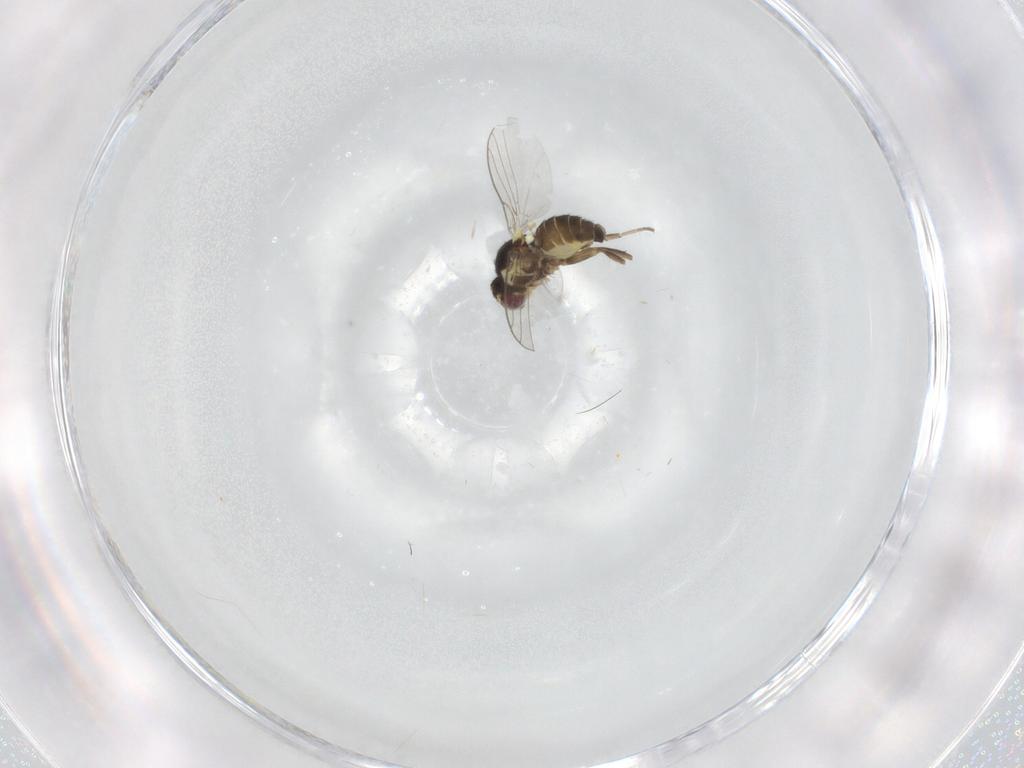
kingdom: Animalia
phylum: Arthropoda
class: Insecta
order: Diptera
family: Agromyzidae
